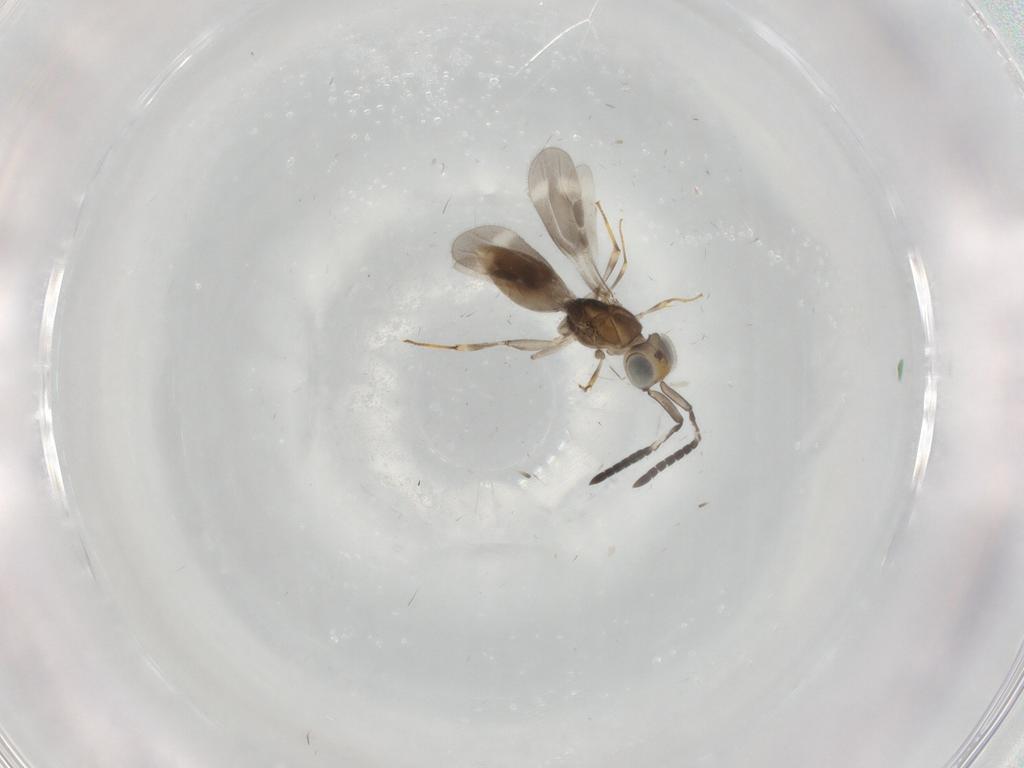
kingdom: Animalia
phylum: Arthropoda
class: Insecta
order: Hymenoptera
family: Megaspilidae
